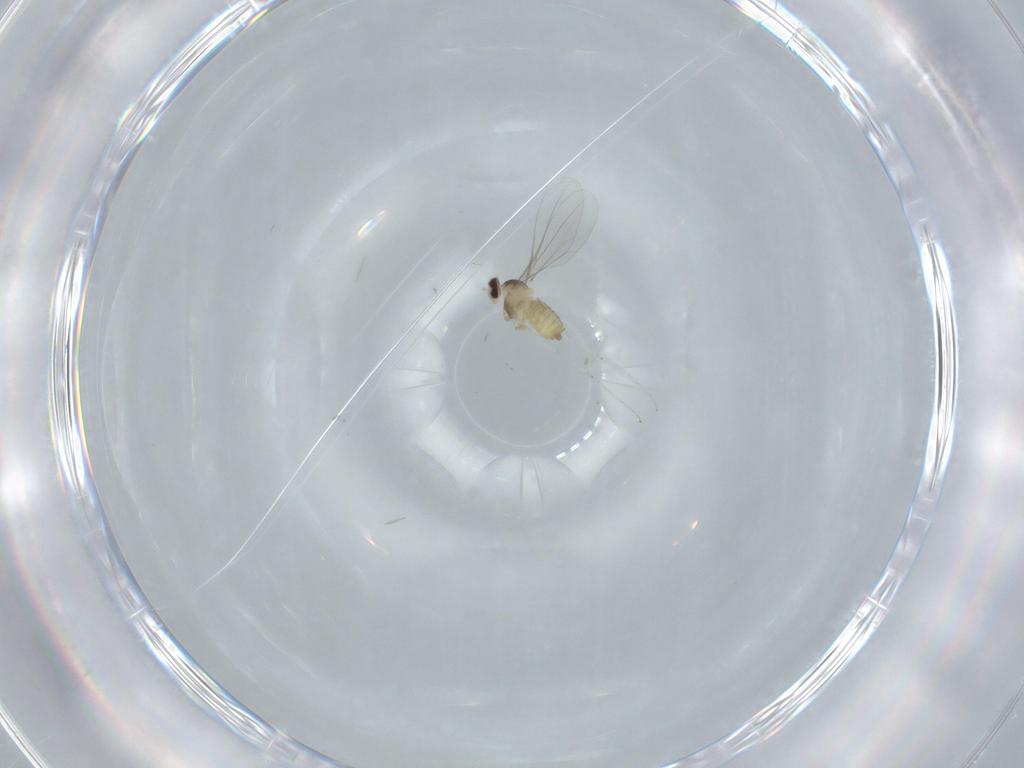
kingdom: Animalia
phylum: Arthropoda
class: Insecta
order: Diptera
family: Cecidomyiidae
